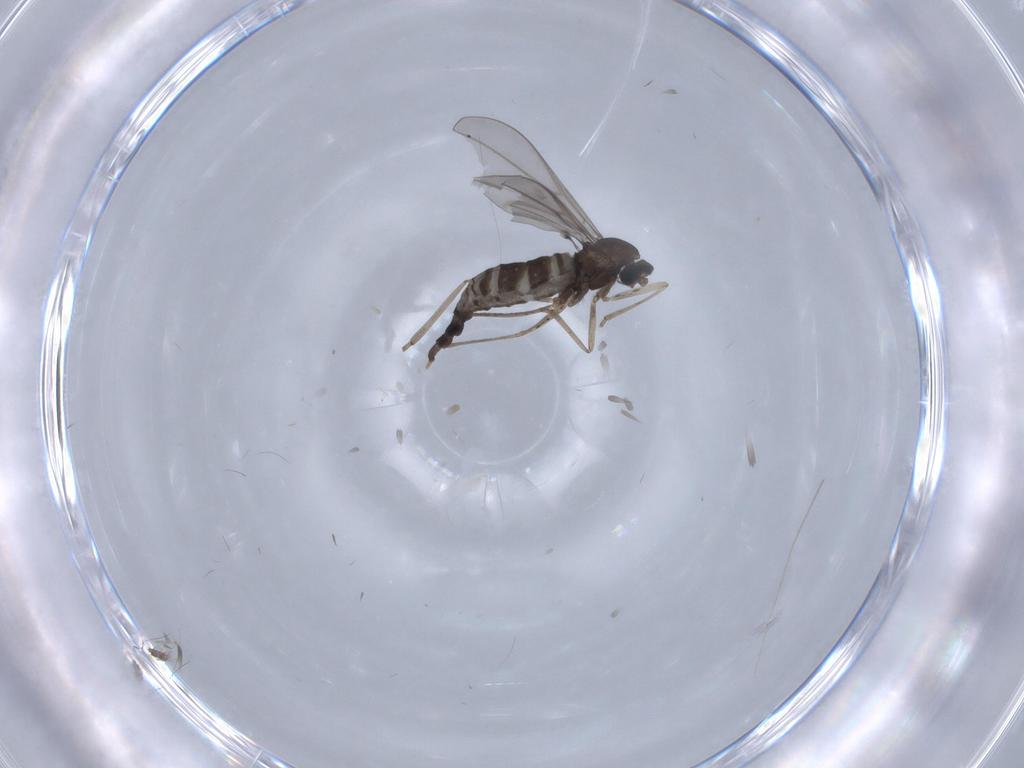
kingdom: Animalia
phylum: Arthropoda
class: Insecta
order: Diptera
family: Cecidomyiidae
